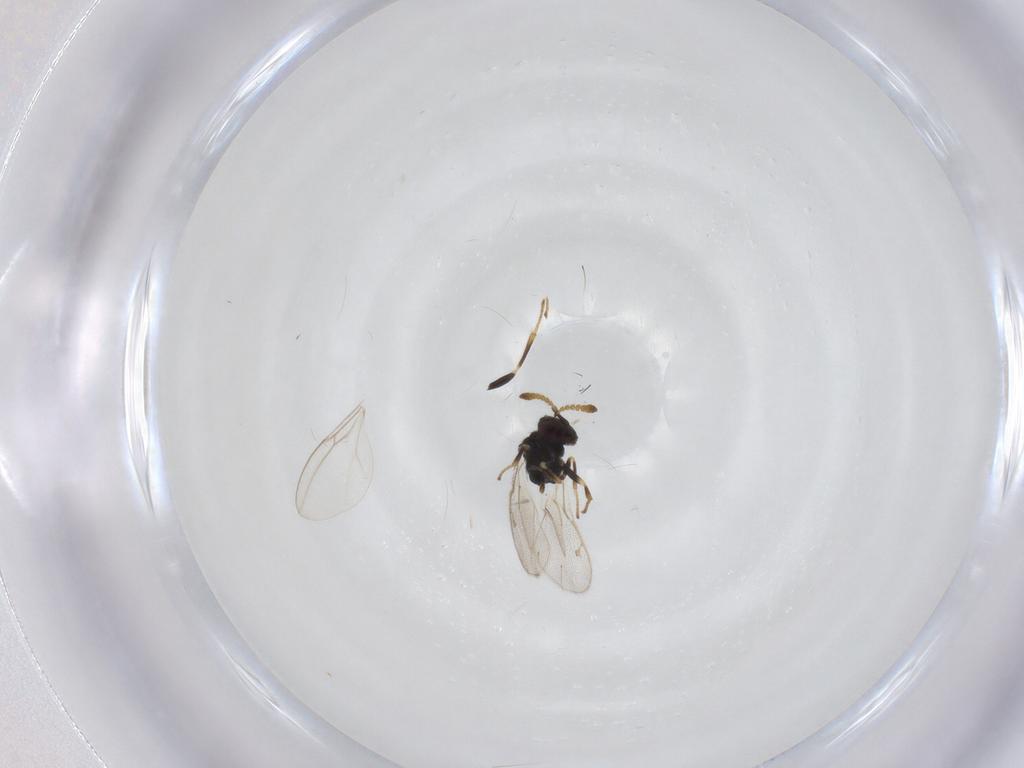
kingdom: Animalia
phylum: Arthropoda
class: Insecta
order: Hymenoptera
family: Pirenidae
